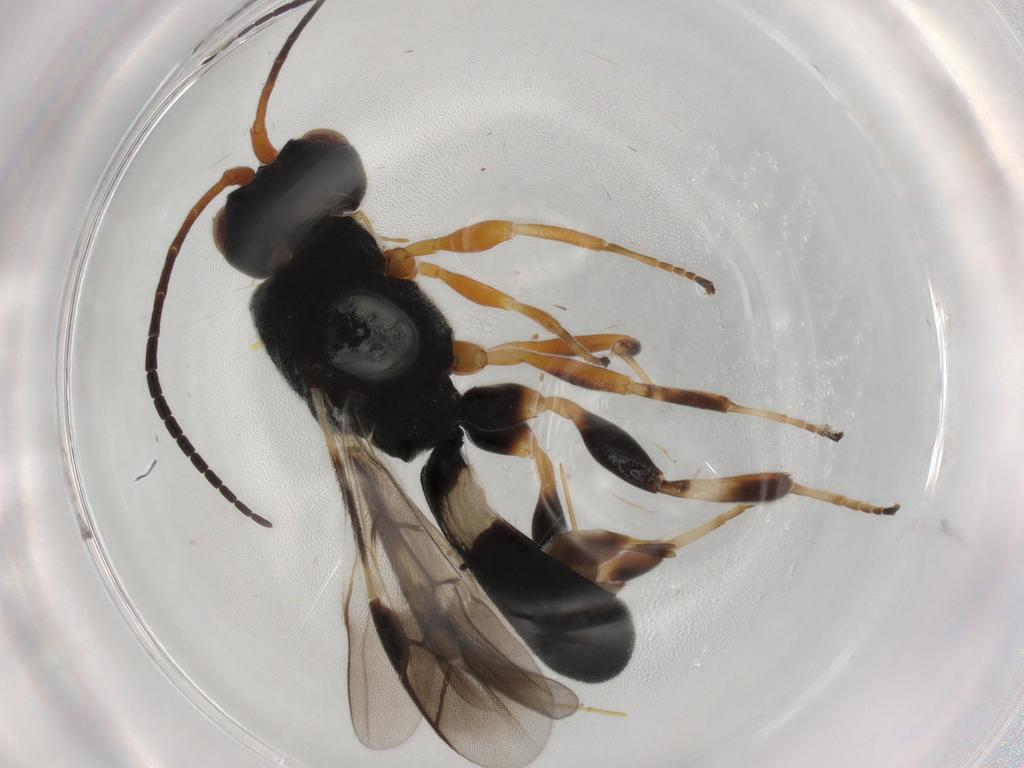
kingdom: Animalia
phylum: Arthropoda
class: Insecta
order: Hymenoptera
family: Braconidae
